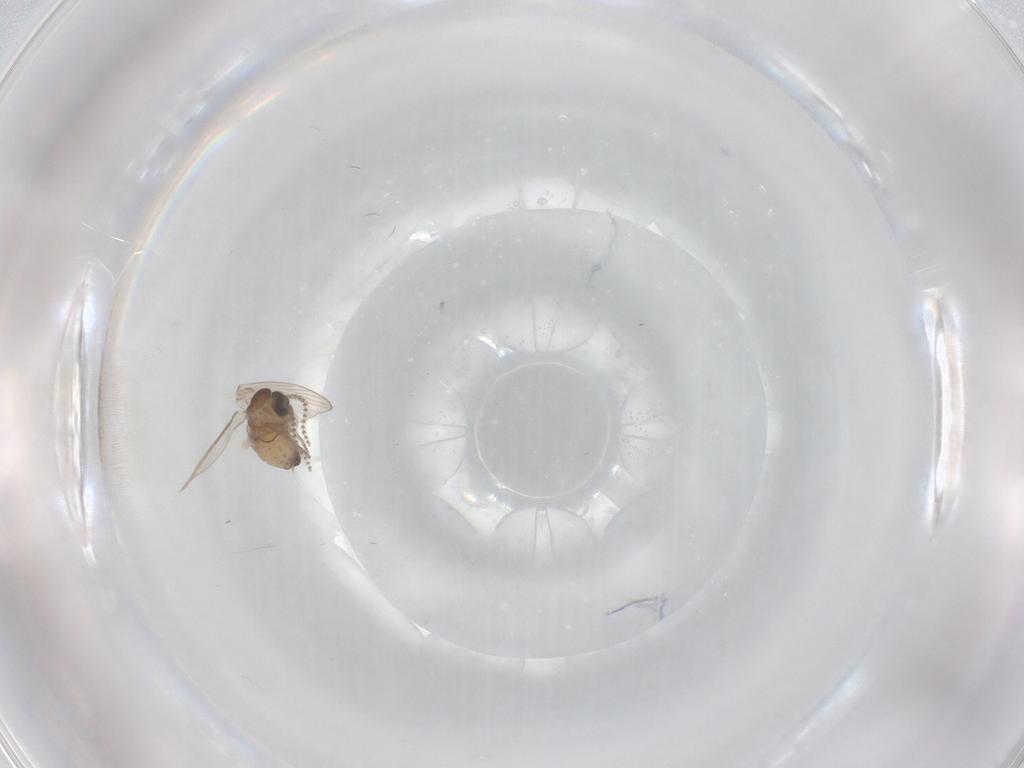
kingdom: Animalia
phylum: Arthropoda
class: Insecta
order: Diptera
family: Psychodidae
